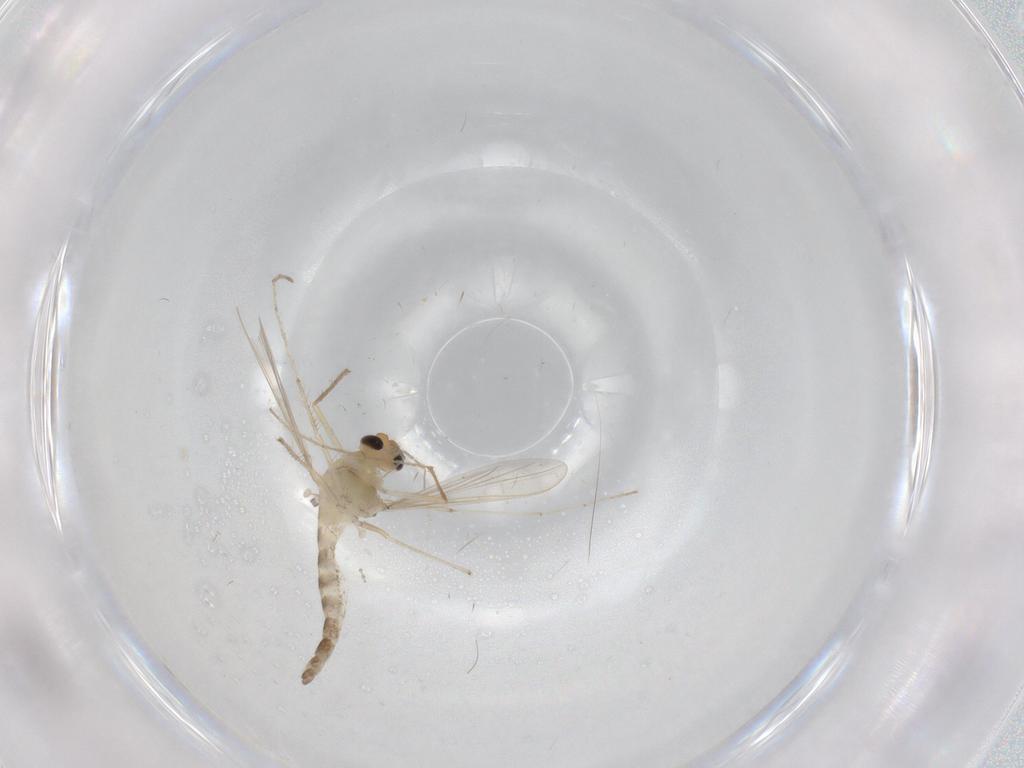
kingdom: Animalia
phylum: Arthropoda
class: Insecta
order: Diptera
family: Chironomidae
